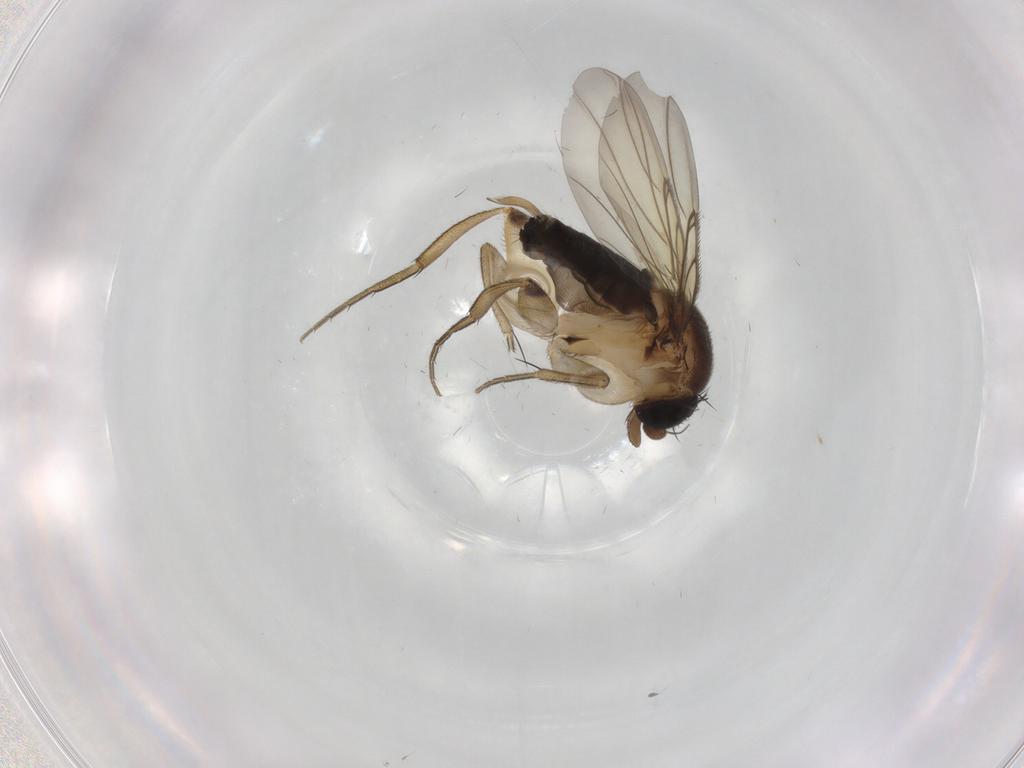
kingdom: Animalia
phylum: Arthropoda
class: Insecta
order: Diptera
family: Phoridae
